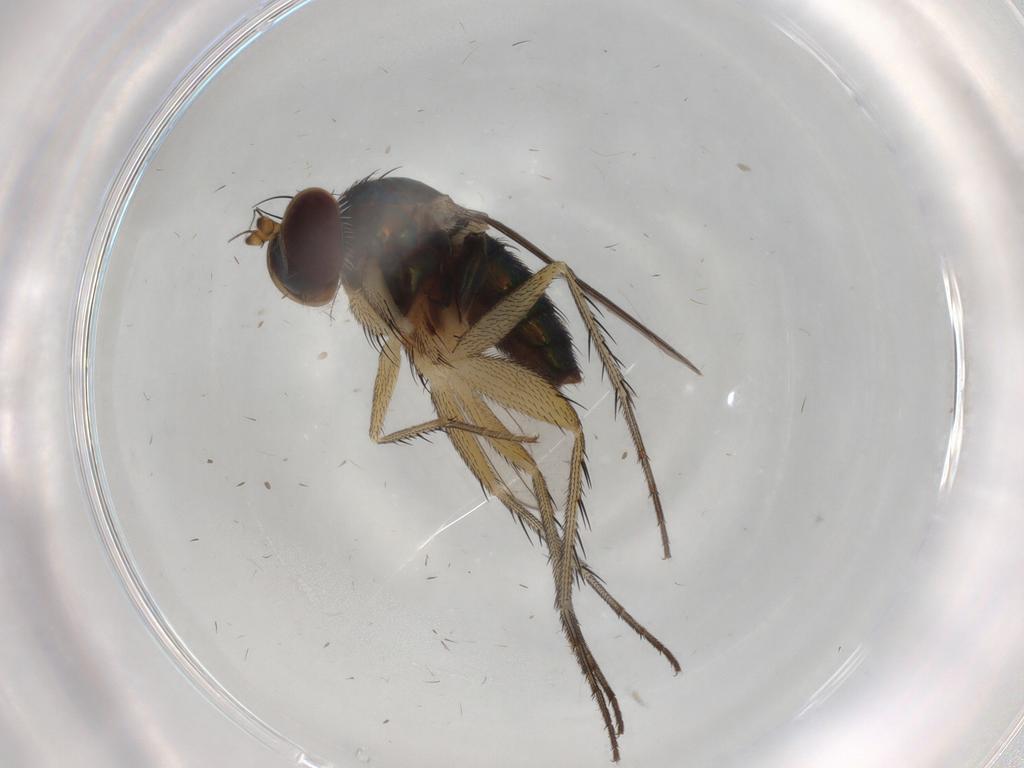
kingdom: Animalia
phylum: Arthropoda
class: Insecta
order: Diptera
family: Dolichopodidae
